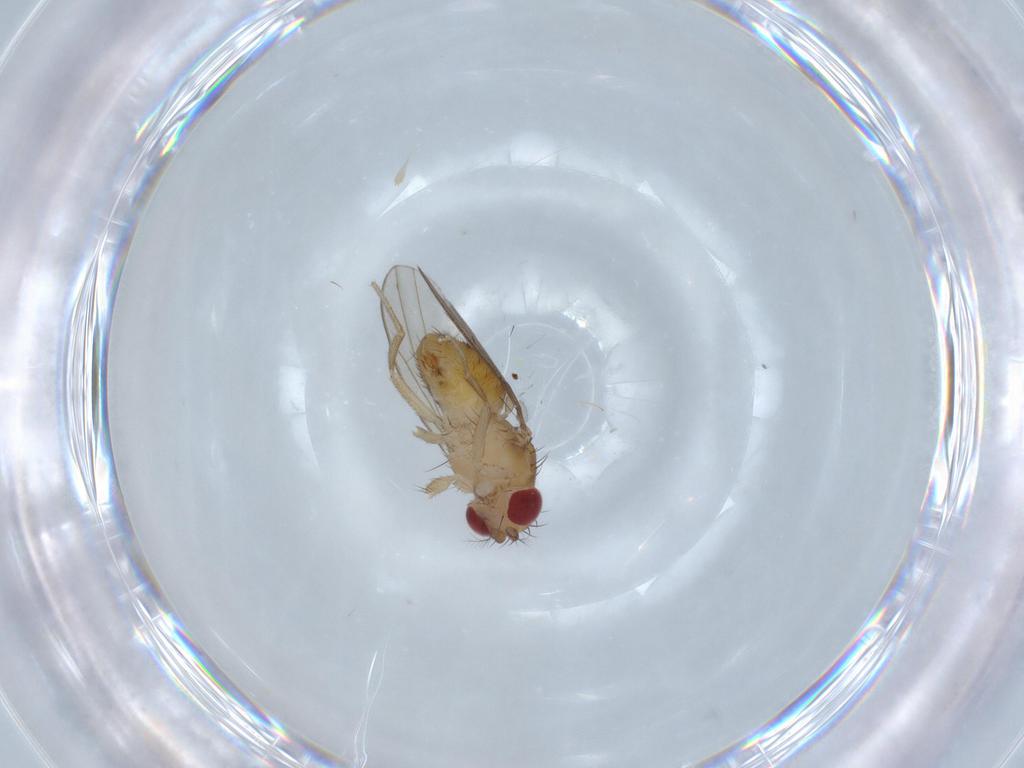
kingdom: Animalia
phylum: Arthropoda
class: Insecta
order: Diptera
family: Drosophilidae
